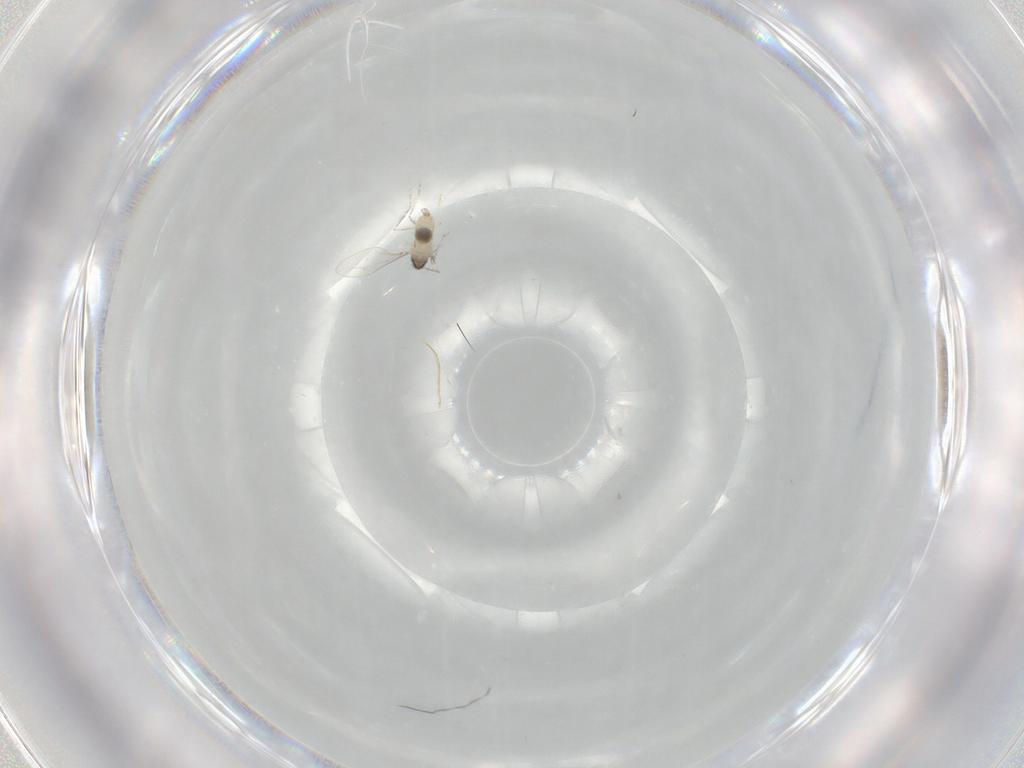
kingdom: Animalia
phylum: Arthropoda
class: Insecta
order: Diptera
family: Cecidomyiidae
